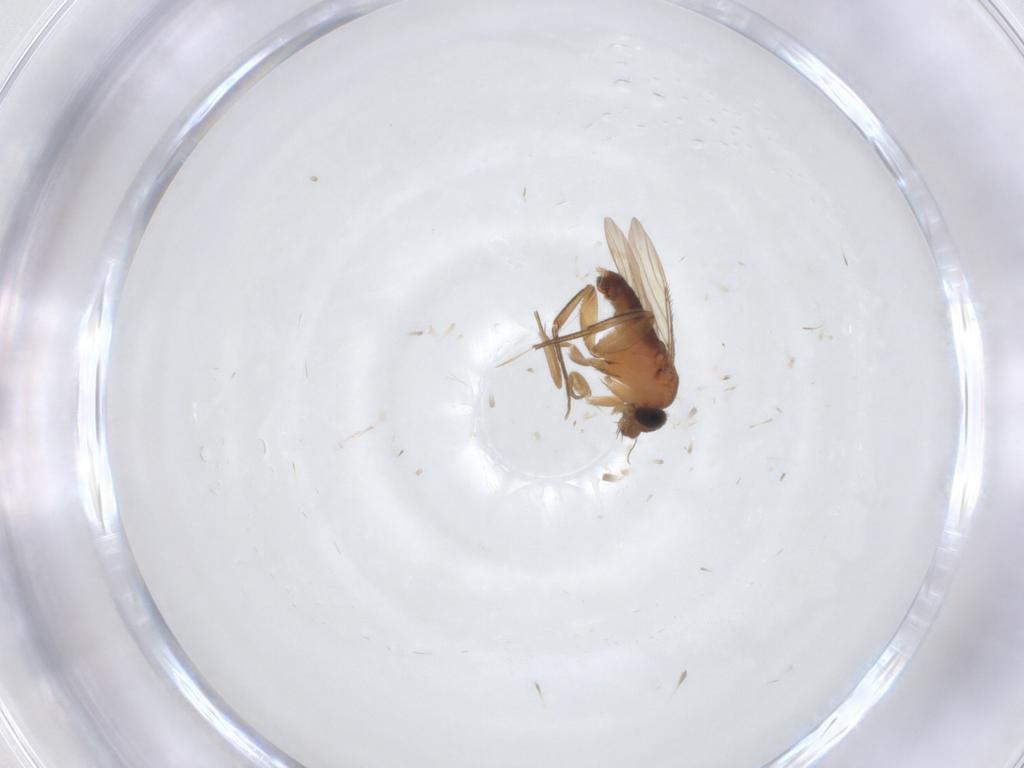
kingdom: Animalia
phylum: Arthropoda
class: Insecta
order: Diptera
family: Phoridae
